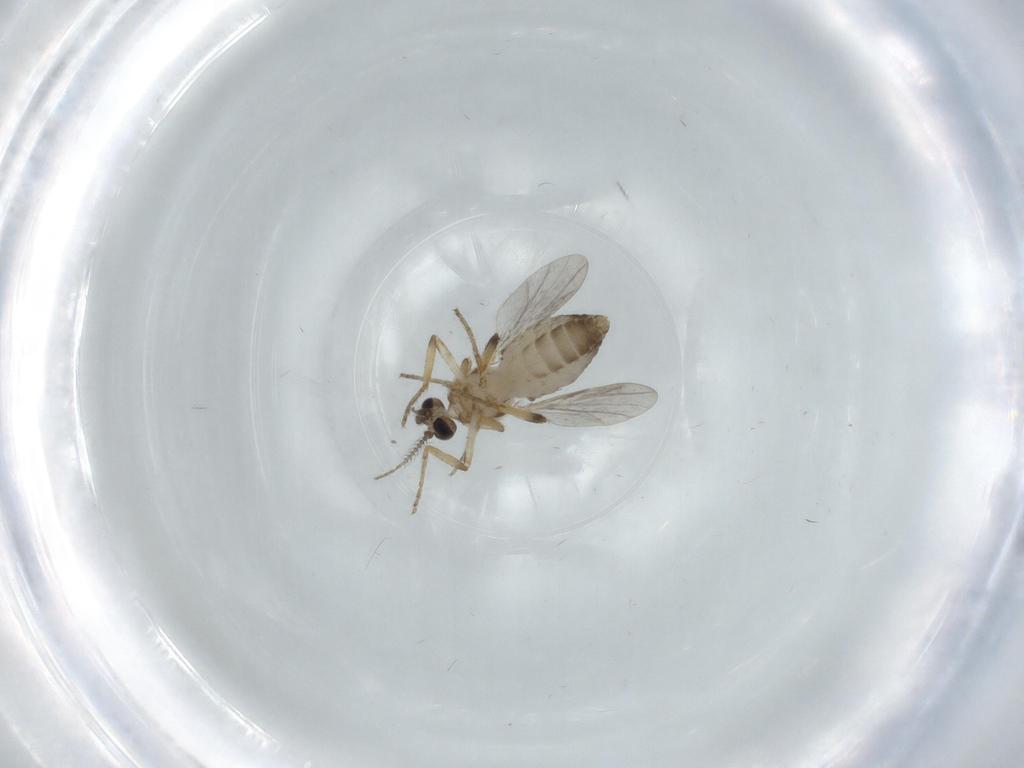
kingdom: Animalia
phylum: Arthropoda
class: Insecta
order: Diptera
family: Ceratopogonidae
